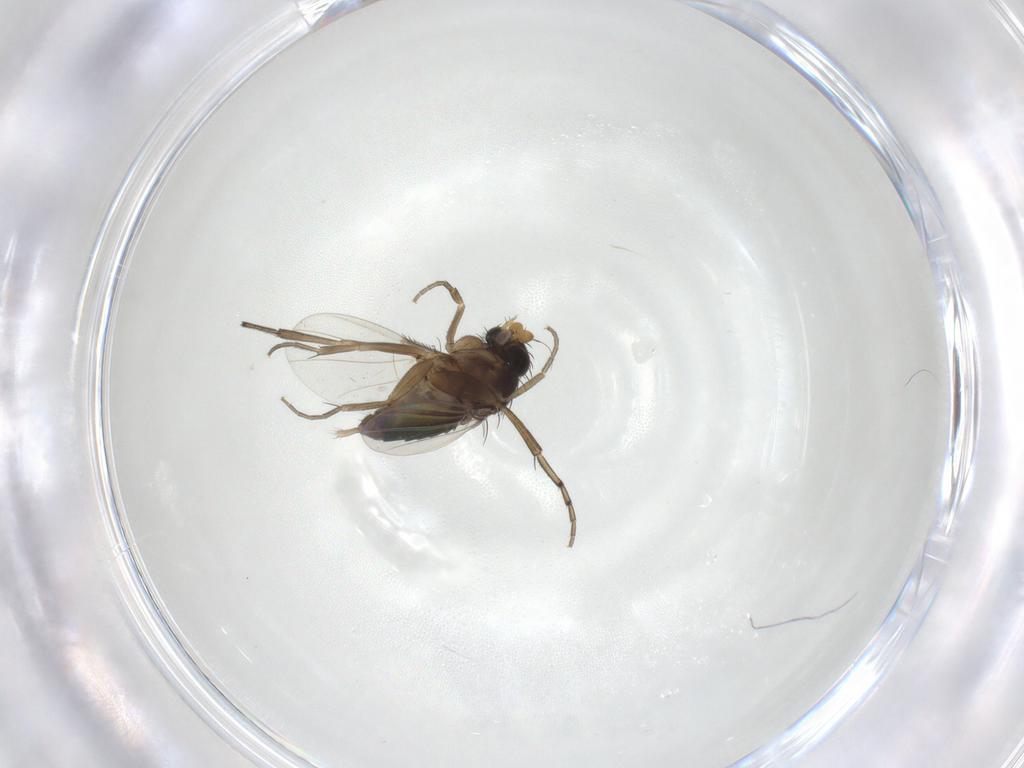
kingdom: Animalia
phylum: Arthropoda
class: Insecta
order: Diptera
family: Phoridae
